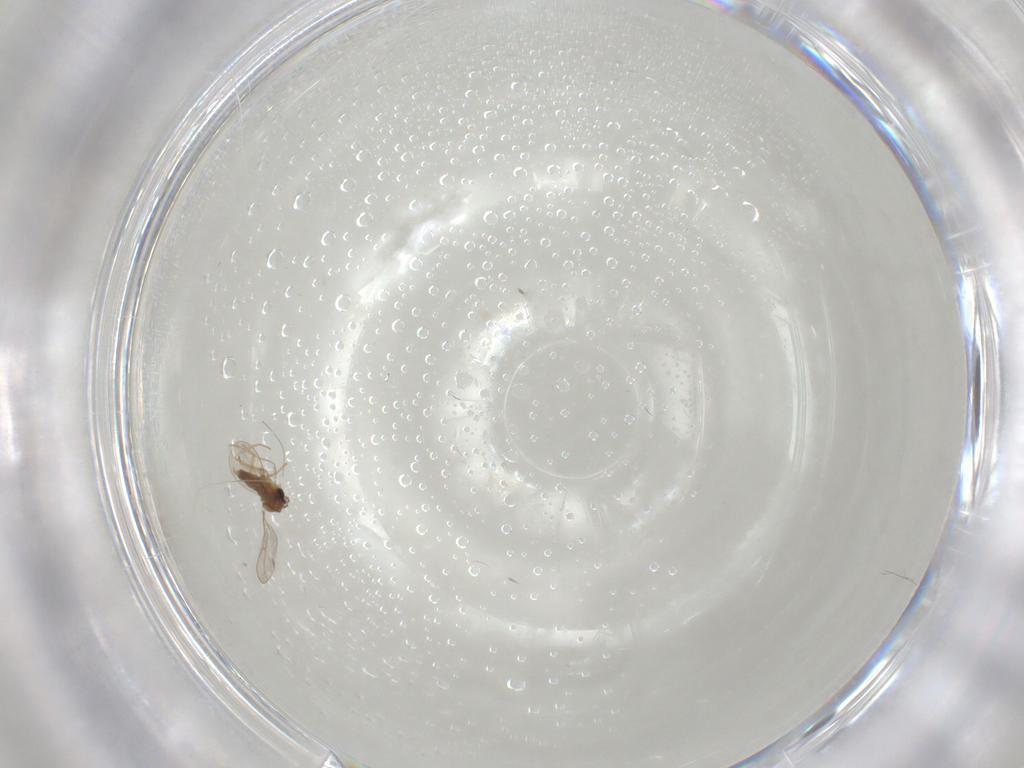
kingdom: Animalia
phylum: Arthropoda
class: Insecta
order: Diptera
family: Cecidomyiidae
